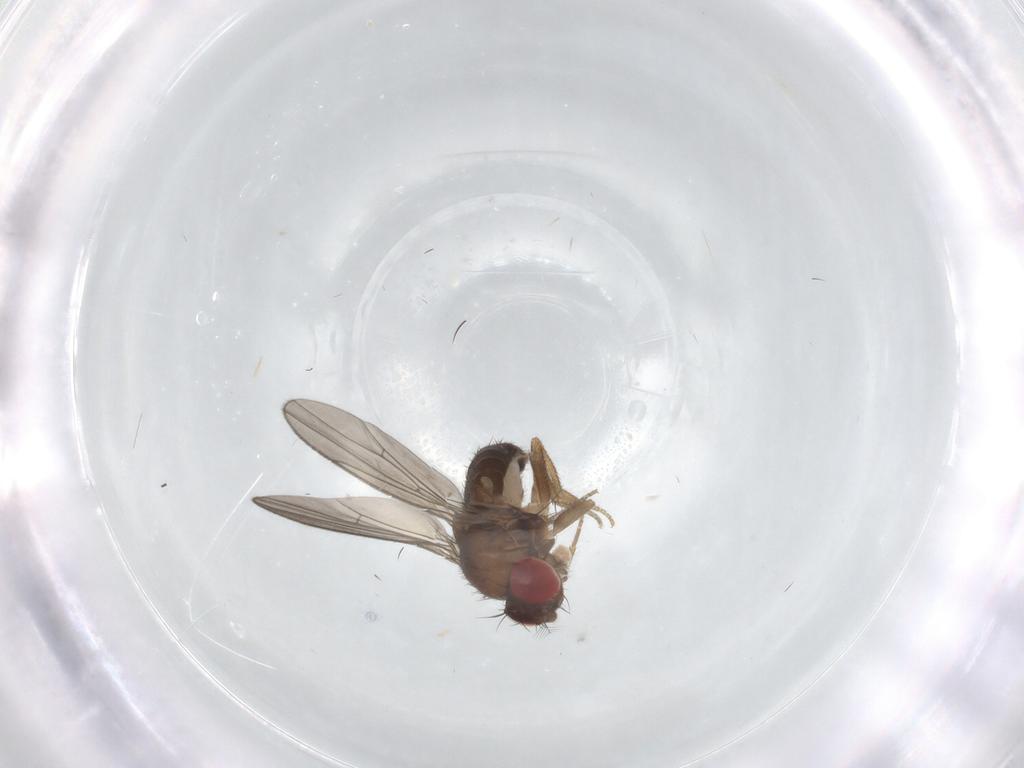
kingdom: Animalia
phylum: Arthropoda
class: Insecta
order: Diptera
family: Drosophilidae
